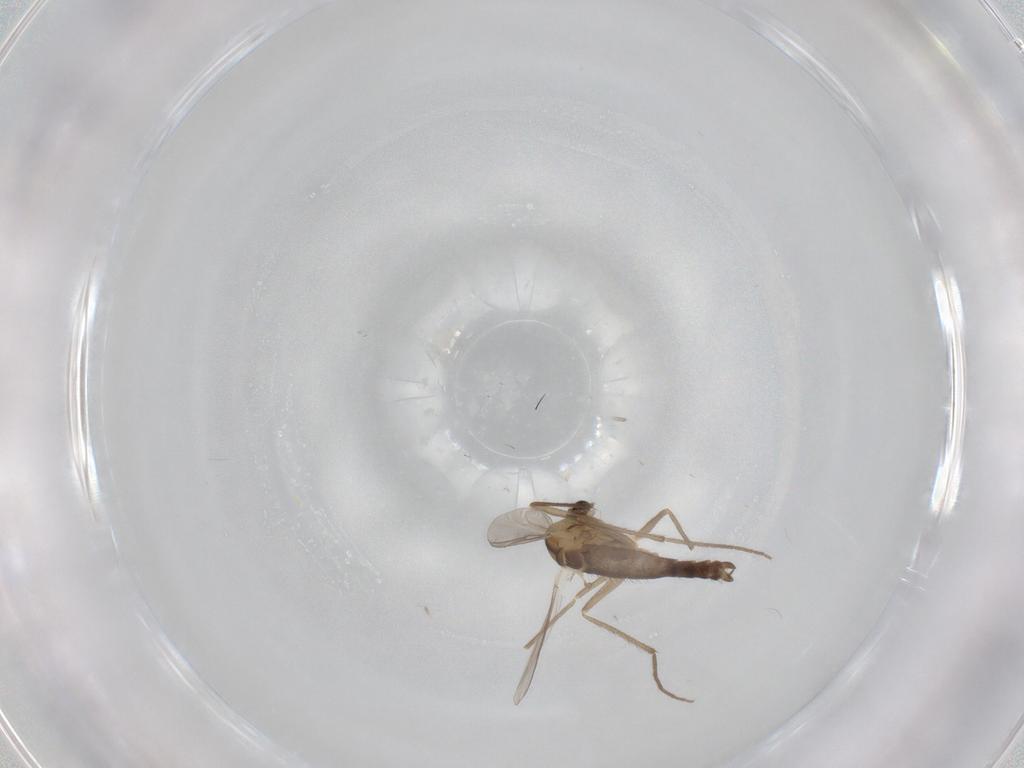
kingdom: Animalia
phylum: Arthropoda
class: Insecta
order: Diptera
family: Chironomidae
